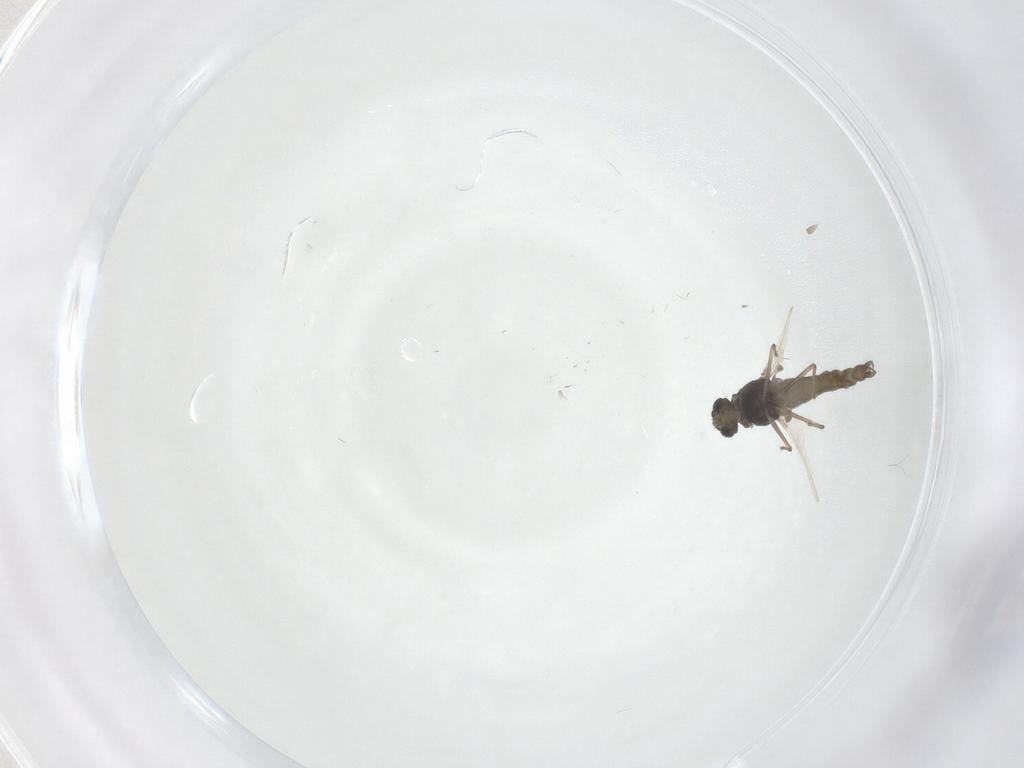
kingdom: Animalia
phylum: Arthropoda
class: Insecta
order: Diptera
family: Chironomidae
